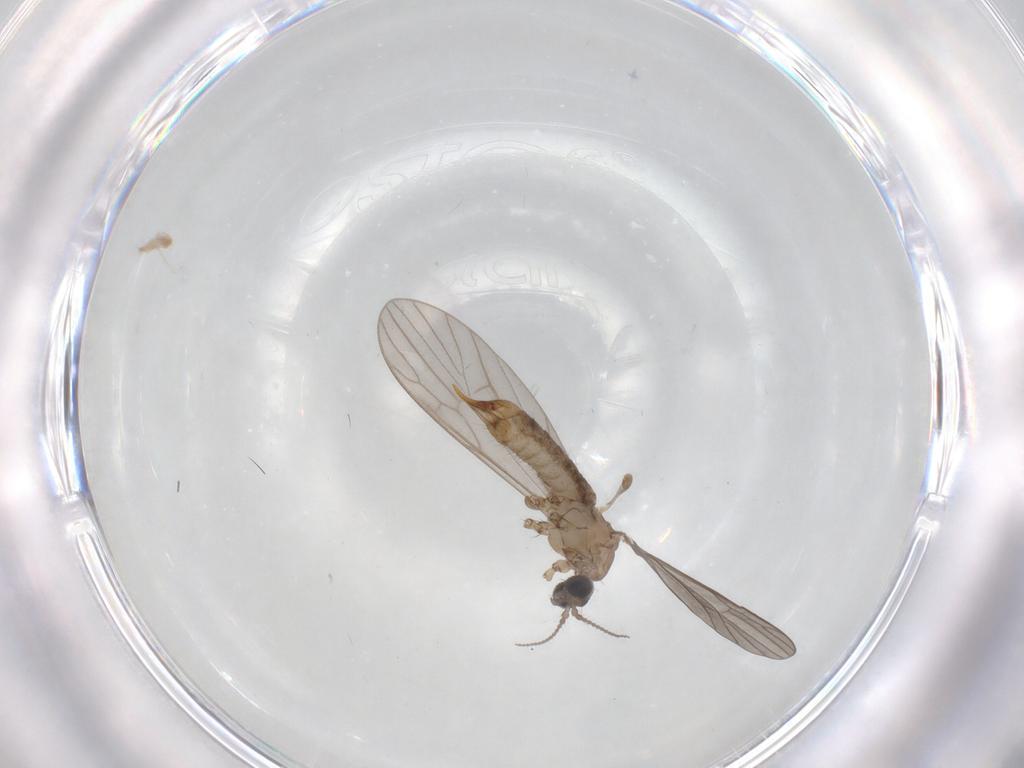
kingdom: Animalia
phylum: Arthropoda
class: Insecta
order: Diptera
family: Limoniidae
